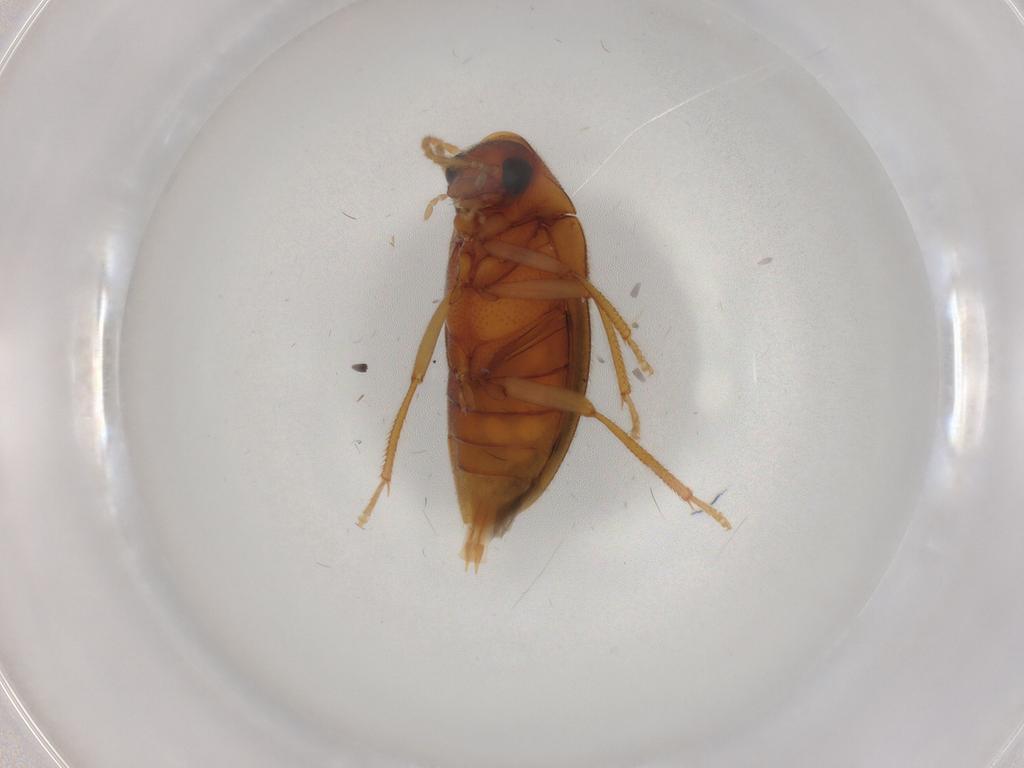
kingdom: Animalia
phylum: Arthropoda
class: Insecta
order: Coleoptera
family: Ptilodactylidae
